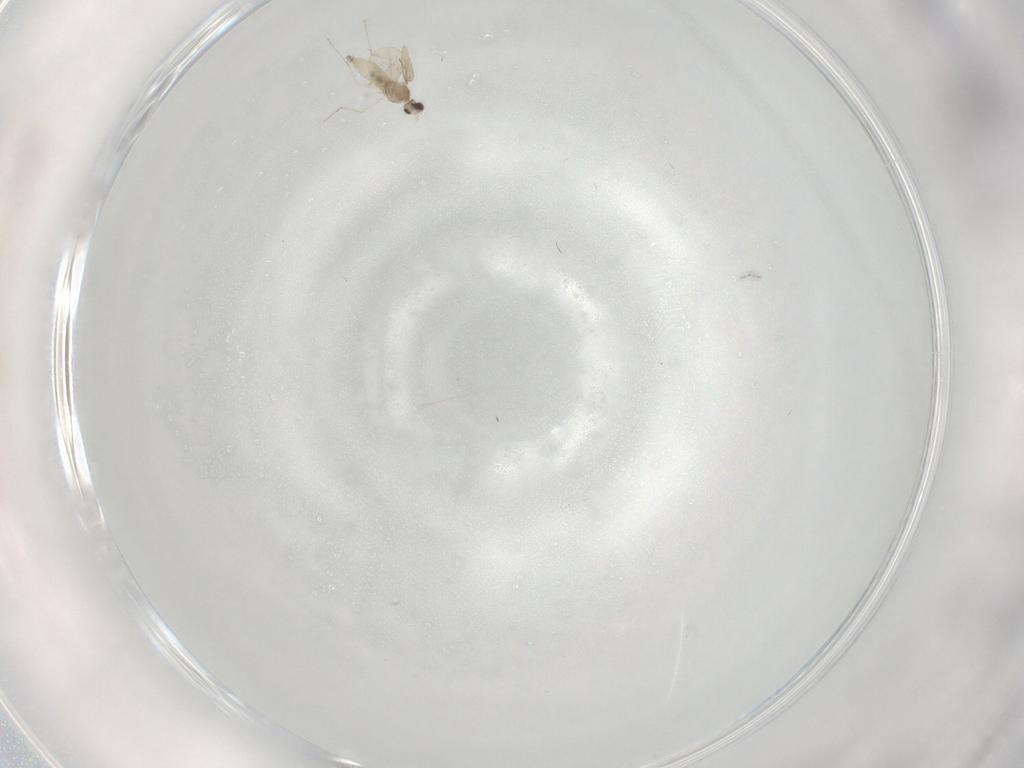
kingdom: Animalia
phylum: Arthropoda
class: Insecta
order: Diptera
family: Cecidomyiidae
